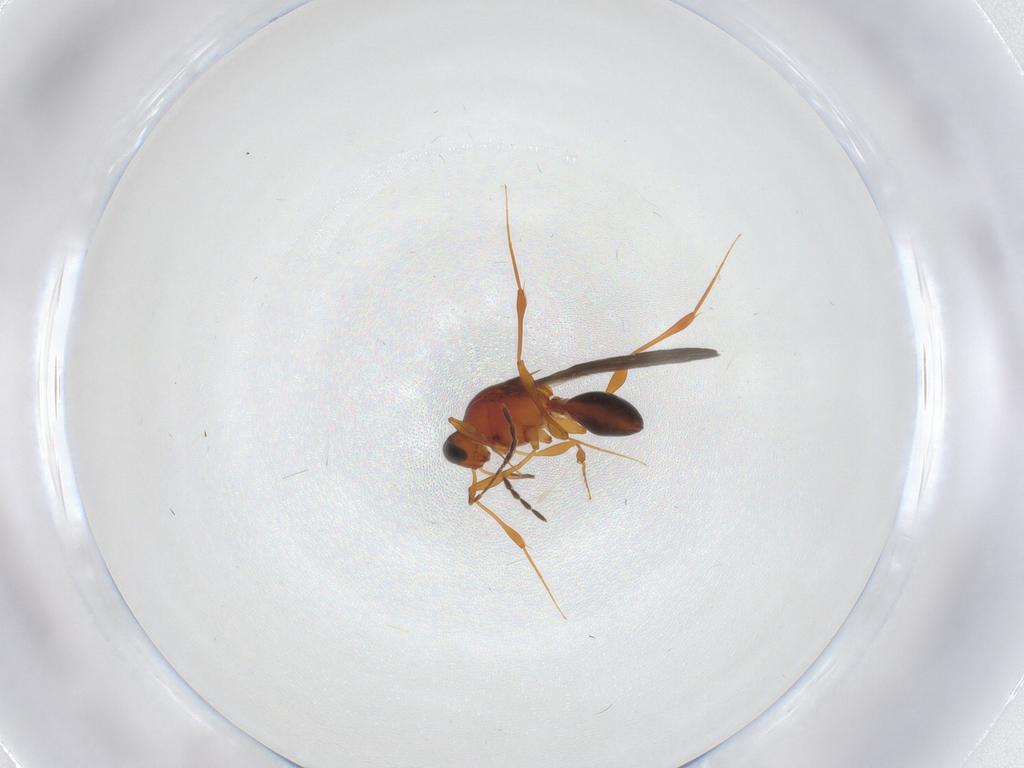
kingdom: Animalia
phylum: Arthropoda
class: Insecta
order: Hymenoptera
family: Platygastridae
